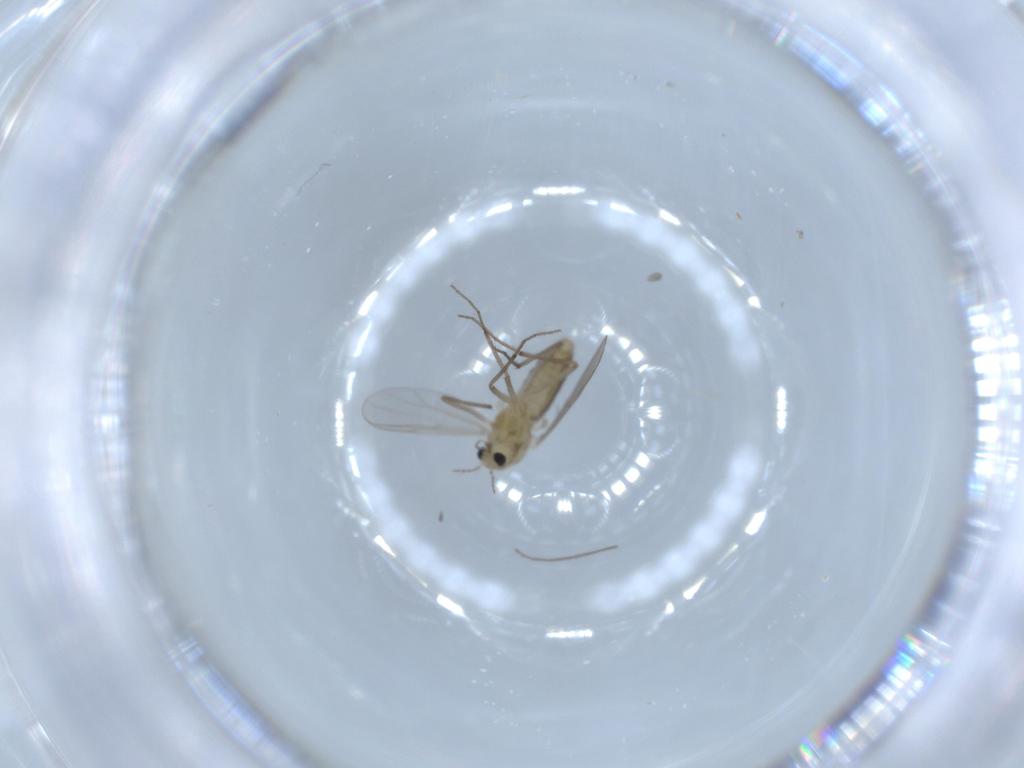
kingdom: Animalia
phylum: Arthropoda
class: Insecta
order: Diptera
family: Chironomidae
